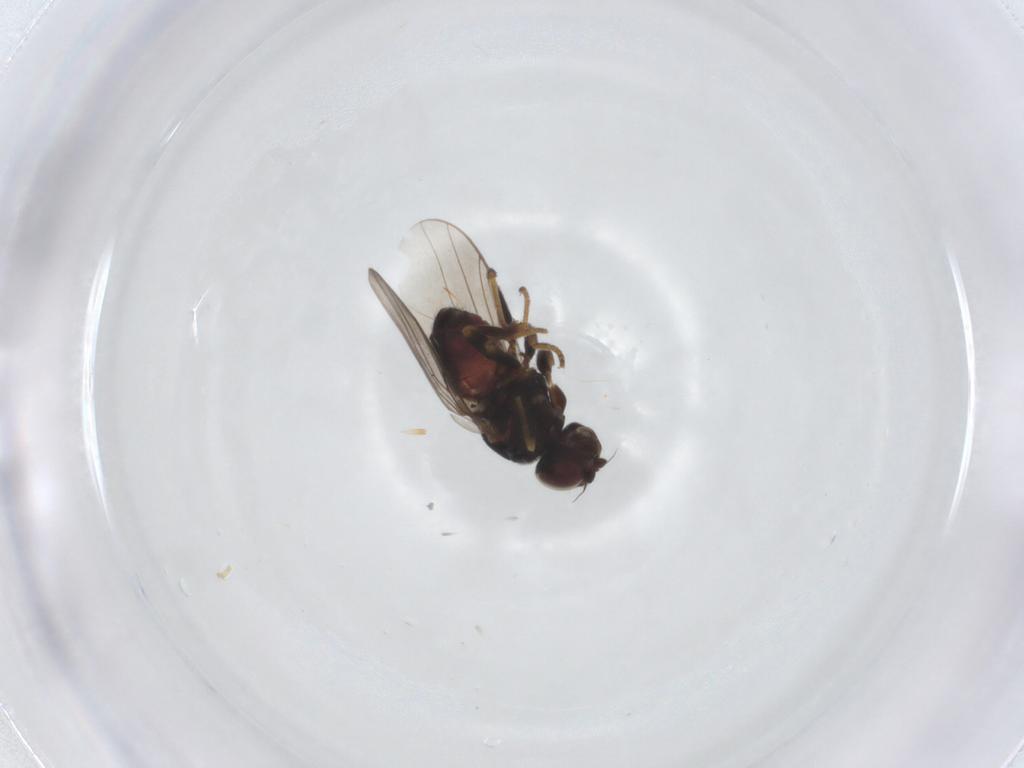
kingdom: Animalia
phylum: Arthropoda
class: Insecta
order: Diptera
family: Chloropidae
